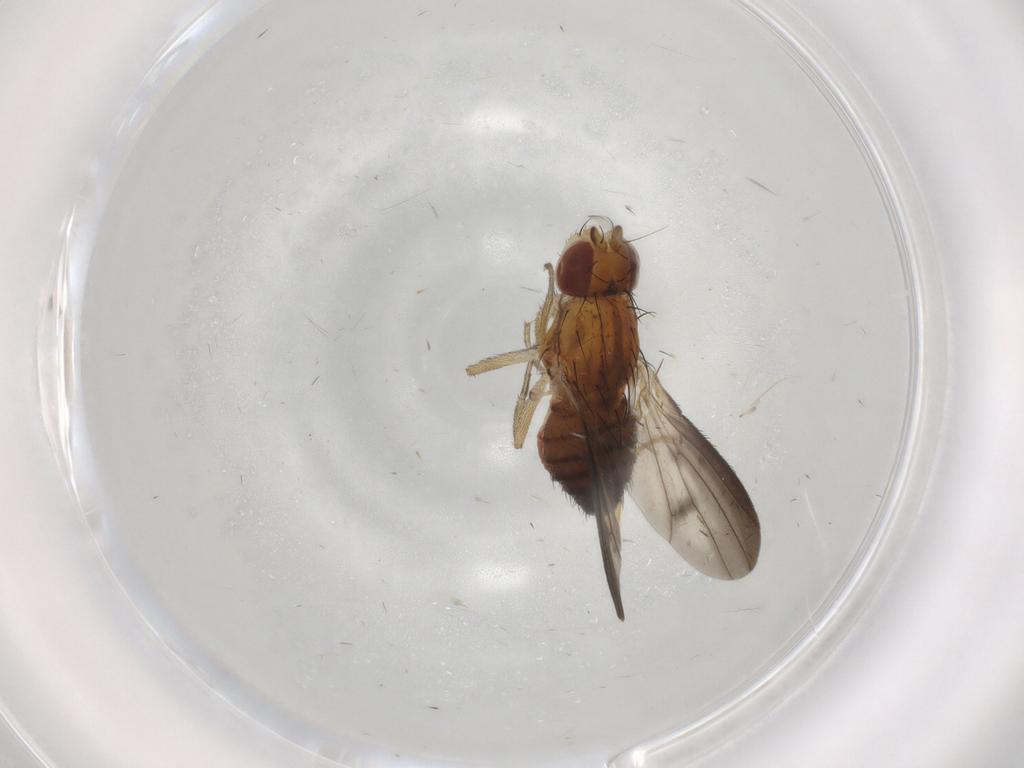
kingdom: Animalia
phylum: Arthropoda
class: Insecta
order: Diptera
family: Heleomyzidae
